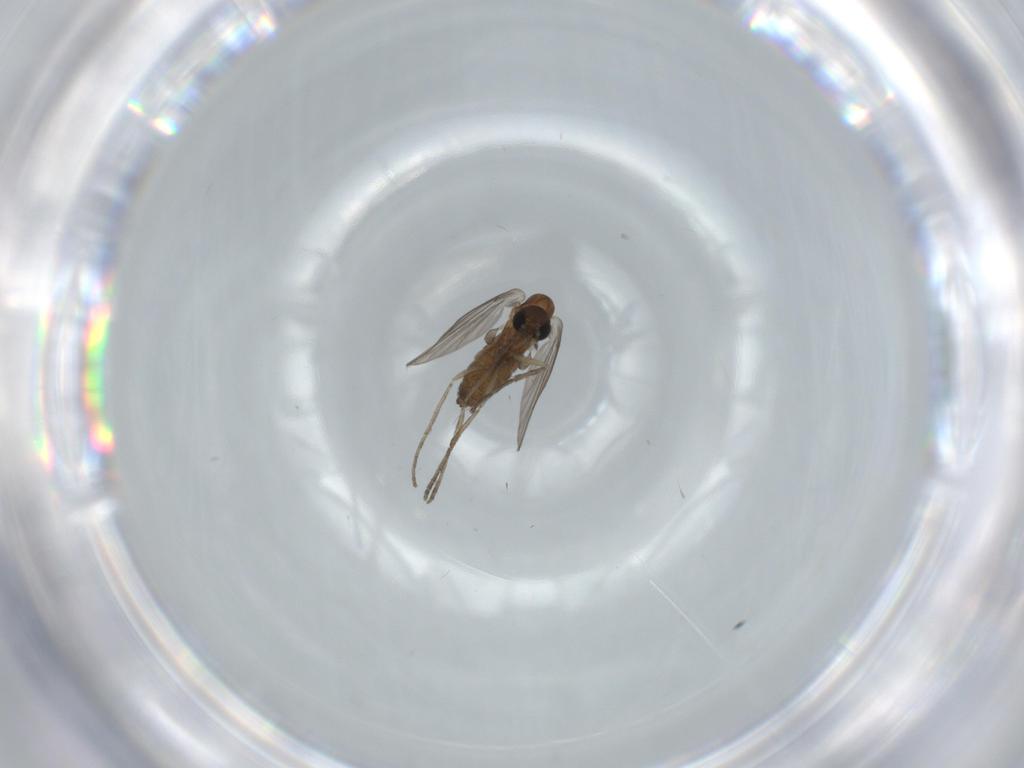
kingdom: Animalia
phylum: Arthropoda
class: Insecta
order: Diptera
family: Psychodidae
